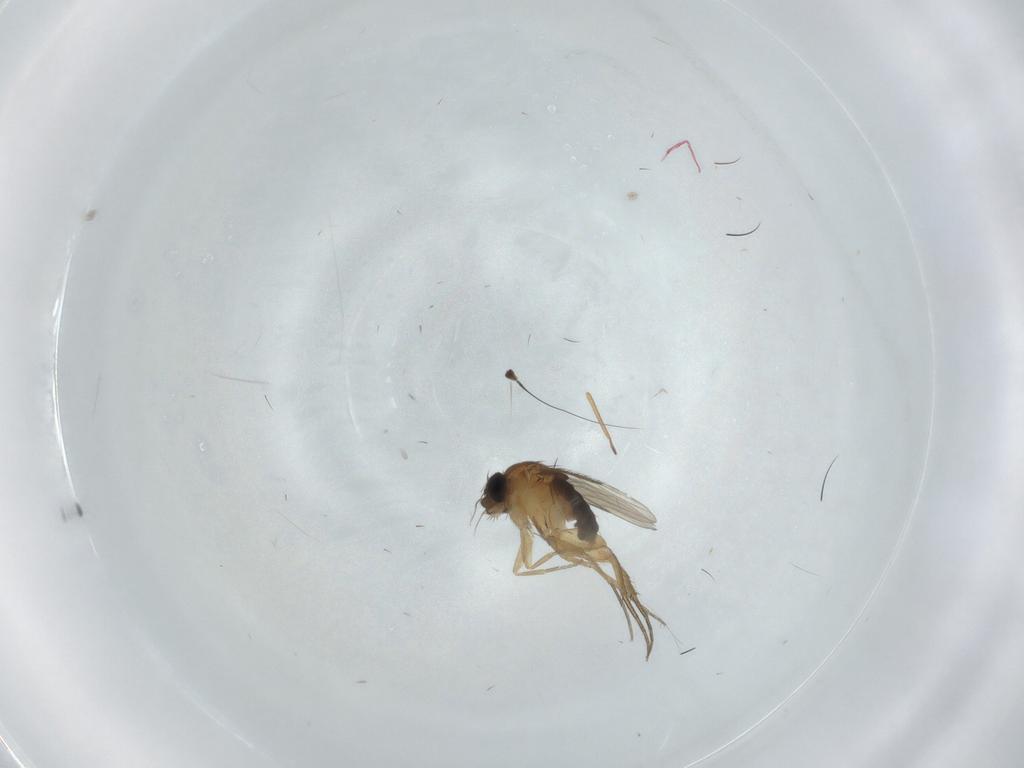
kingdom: Animalia
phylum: Arthropoda
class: Insecta
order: Diptera
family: Phoridae
